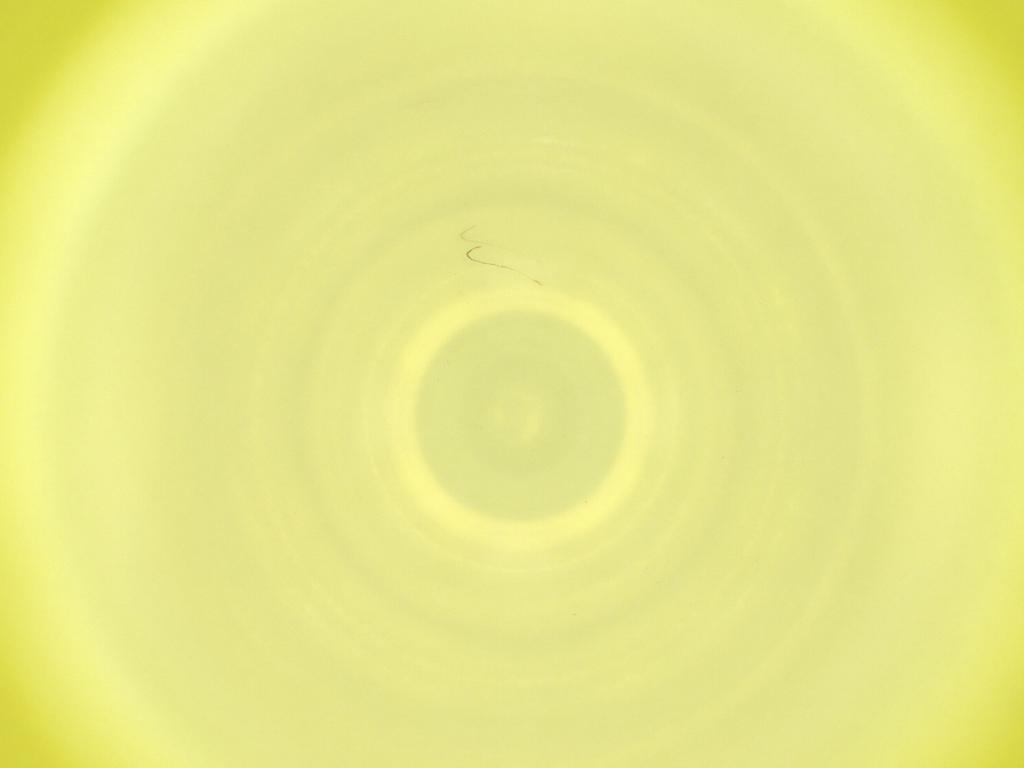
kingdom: Animalia
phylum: Arthropoda
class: Insecta
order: Diptera
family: Cecidomyiidae
